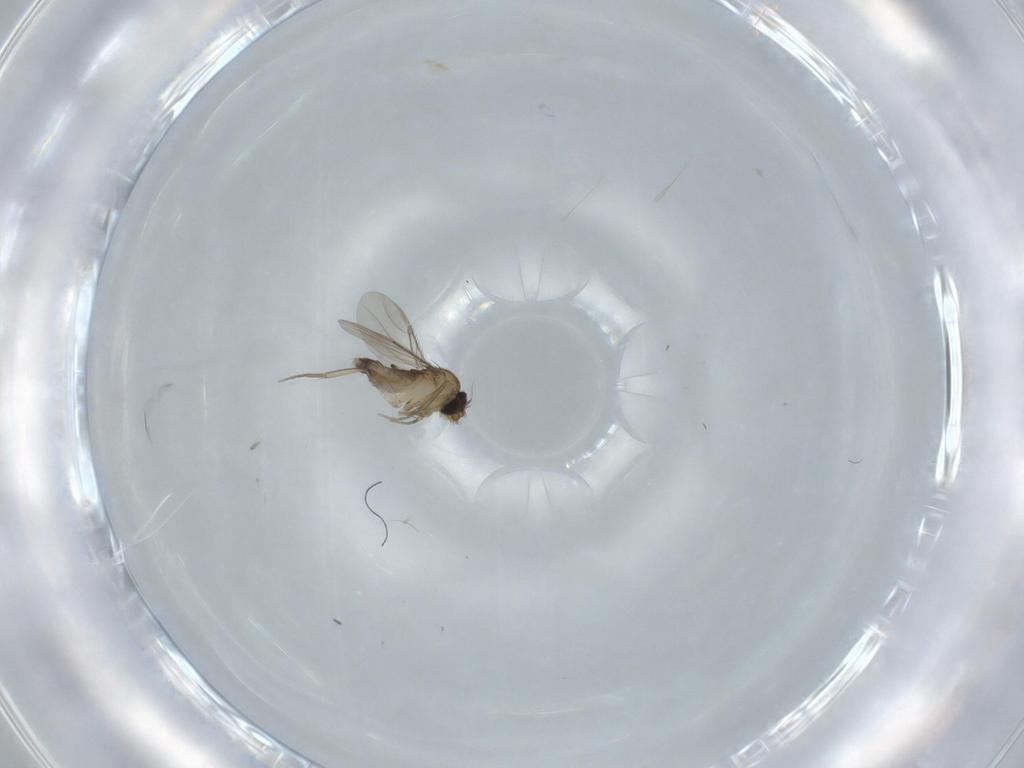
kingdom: Animalia
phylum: Arthropoda
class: Insecta
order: Diptera
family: Phoridae
